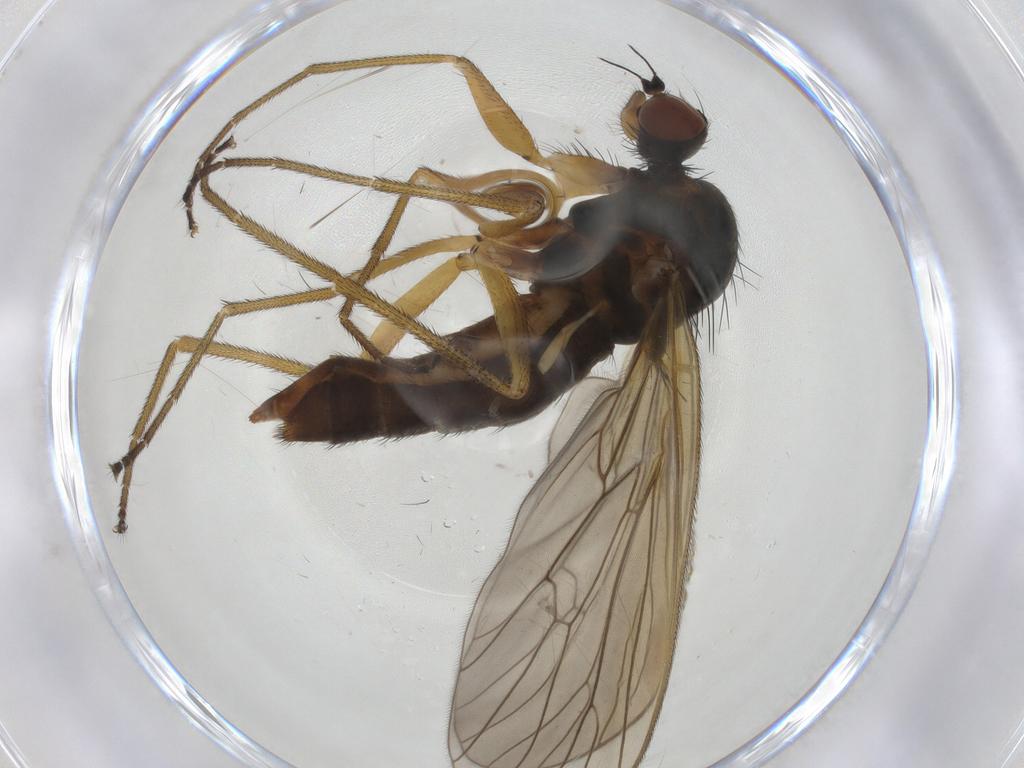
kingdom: Animalia
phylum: Arthropoda
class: Insecta
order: Diptera
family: Brachystomatidae
